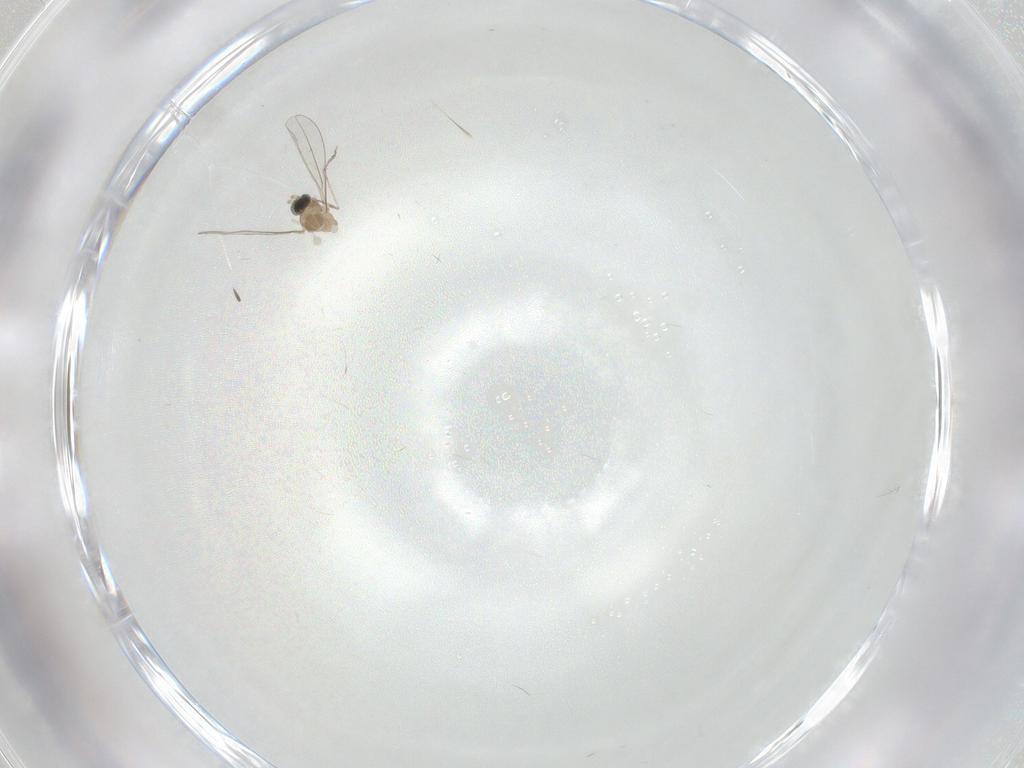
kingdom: Animalia
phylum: Arthropoda
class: Insecta
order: Diptera
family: Cecidomyiidae
